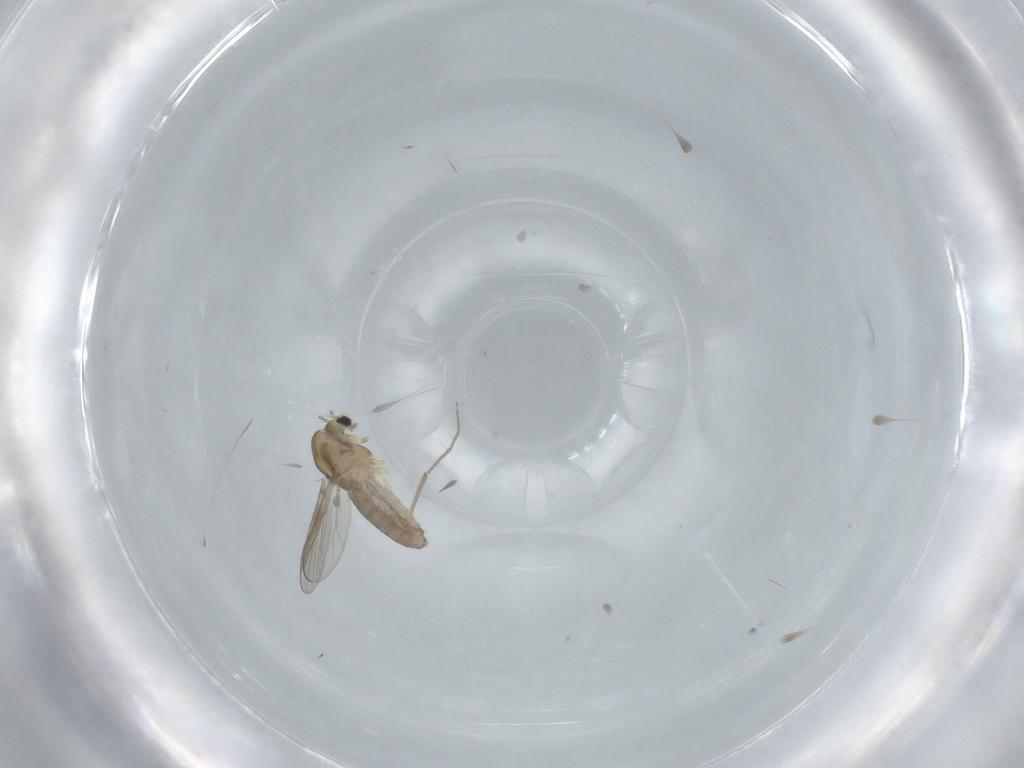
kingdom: Animalia
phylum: Arthropoda
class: Insecta
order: Diptera
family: Chironomidae
